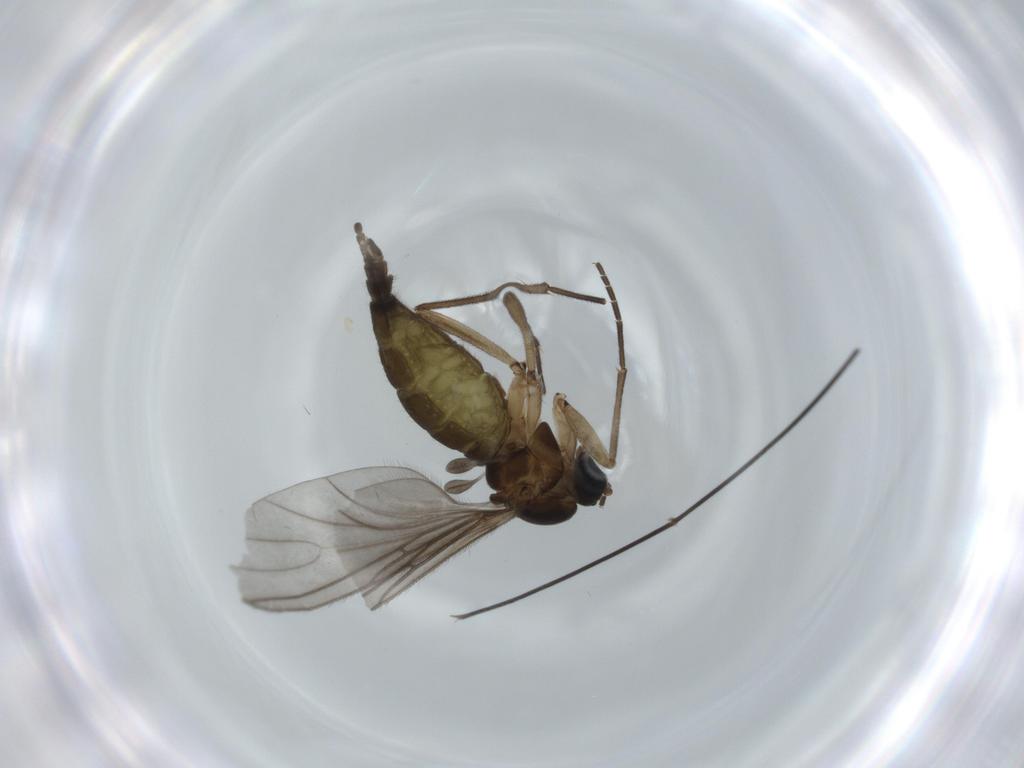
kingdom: Animalia
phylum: Arthropoda
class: Insecta
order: Diptera
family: Sciaridae
